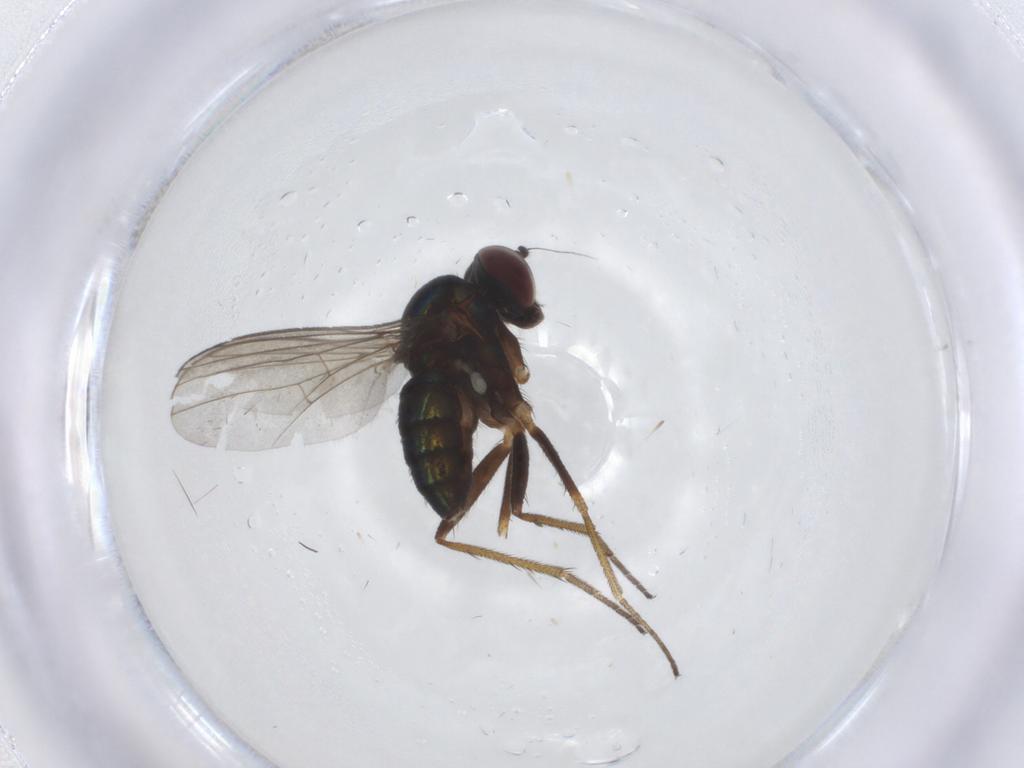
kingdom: Animalia
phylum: Arthropoda
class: Insecta
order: Diptera
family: Dolichopodidae
